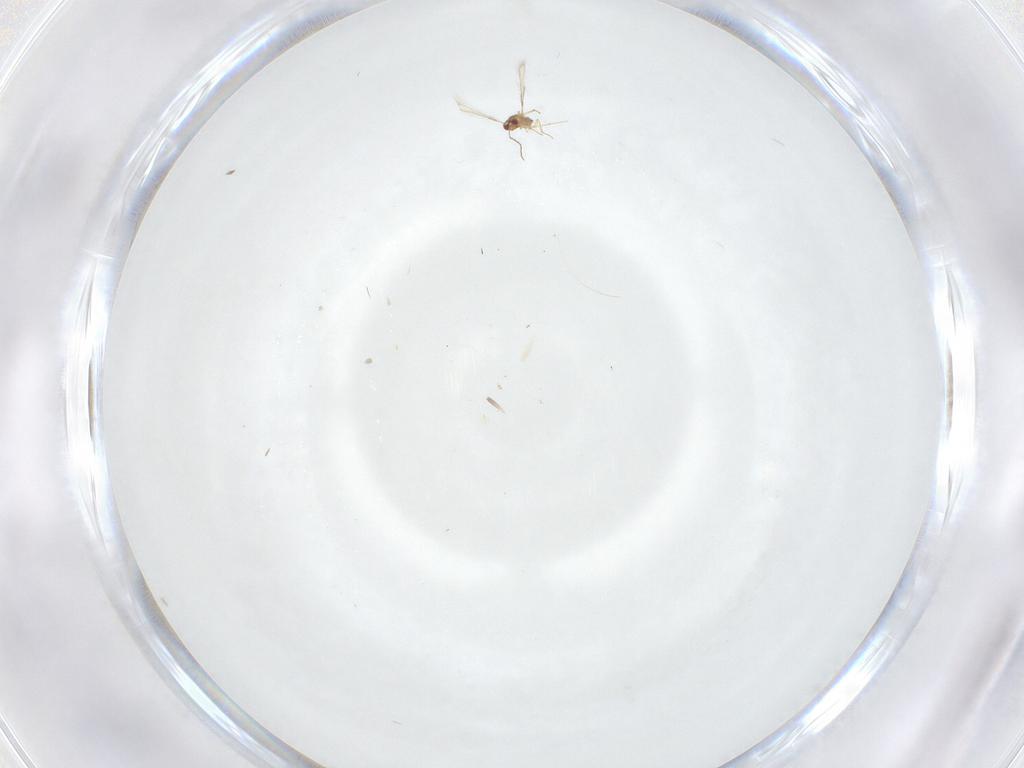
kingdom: Animalia
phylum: Arthropoda
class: Insecta
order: Hymenoptera
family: Mymaridae
